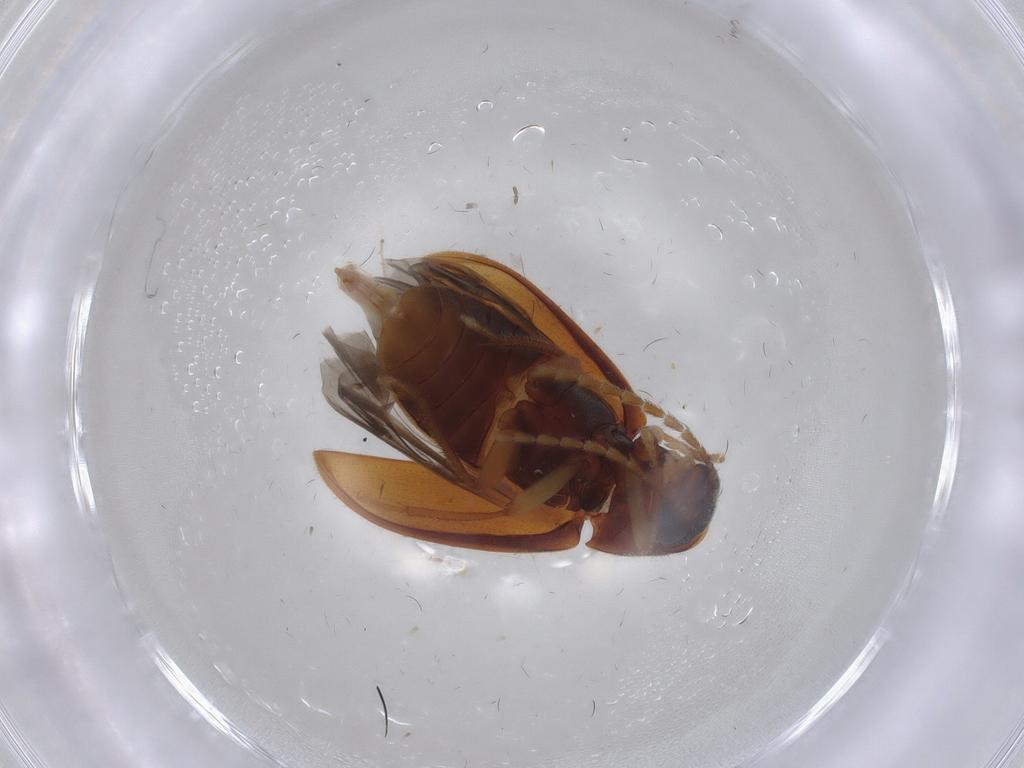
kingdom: Animalia
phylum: Arthropoda
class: Insecta
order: Coleoptera
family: Ptilodactylidae
